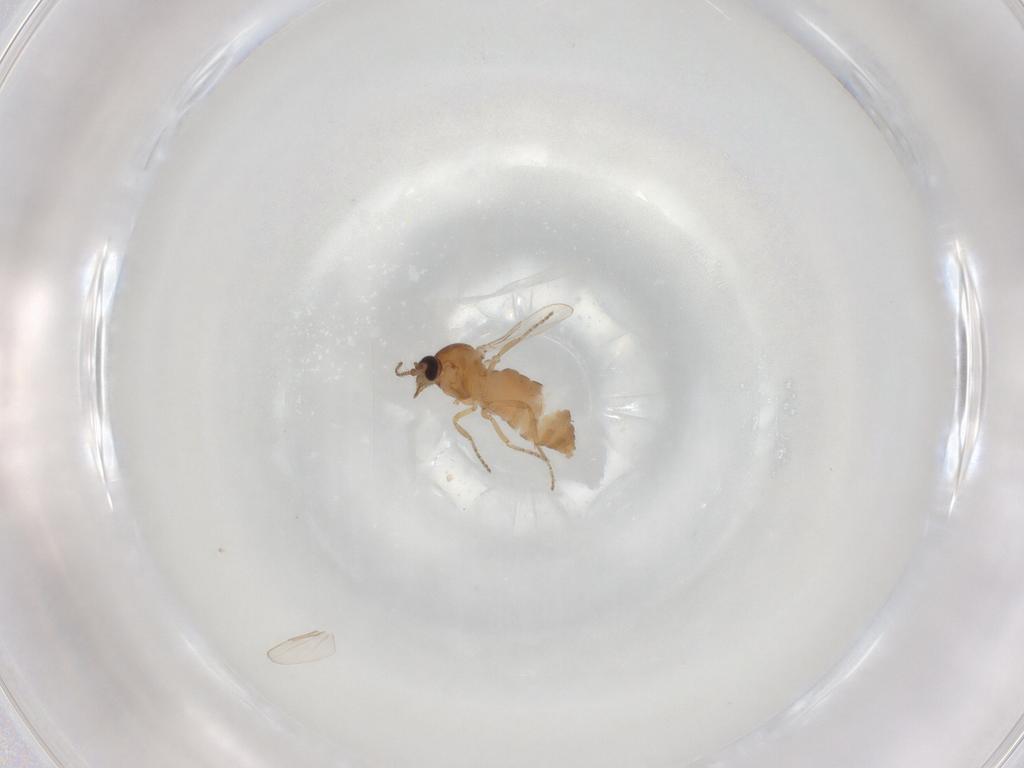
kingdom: Animalia
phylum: Arthropoda
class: Insecta
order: Diptera
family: Ceratopogonidae
